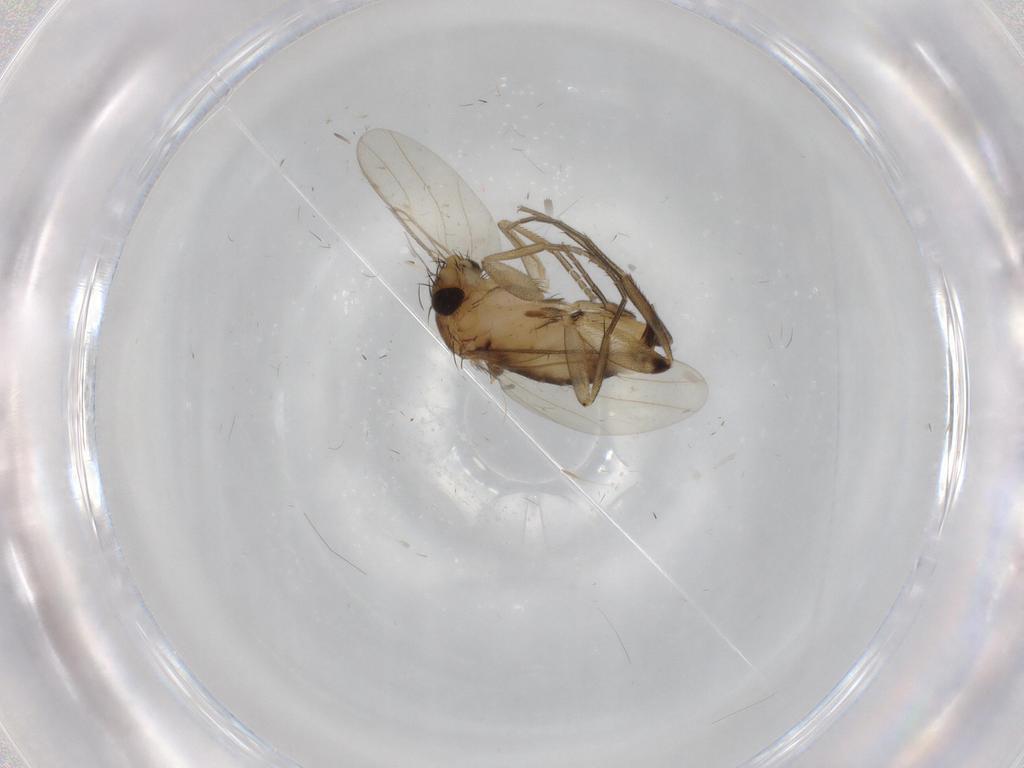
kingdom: Animalia
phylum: Arthropoda
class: Insecta
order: Diptera
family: Phoridae
